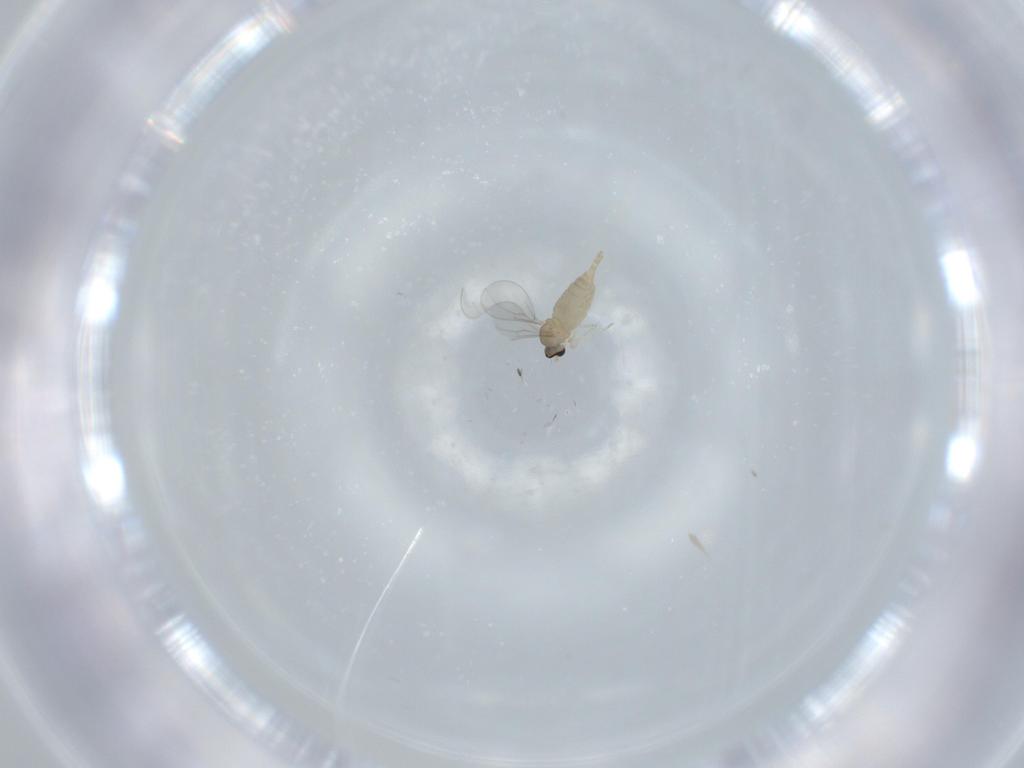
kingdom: Animalia
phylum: Arthropoda
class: Insecta
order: Diptera
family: Cecidomyiidae
